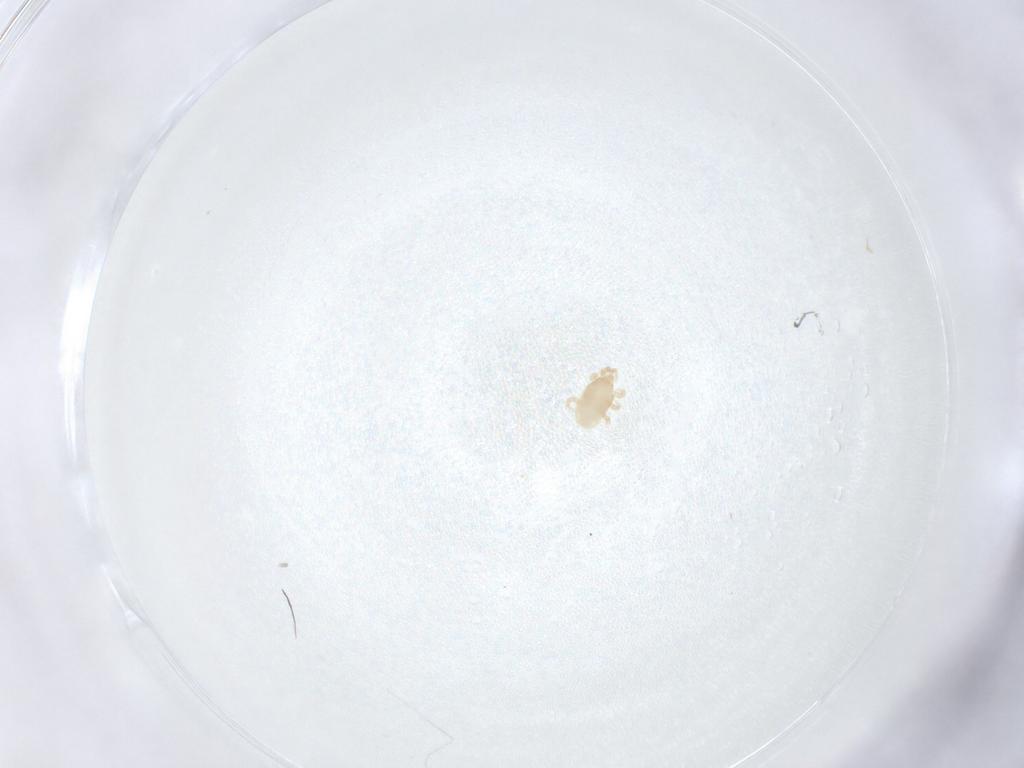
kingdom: Animalia
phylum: Arthropoda
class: Arachnida
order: Mesostigmata
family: Melicharidae
